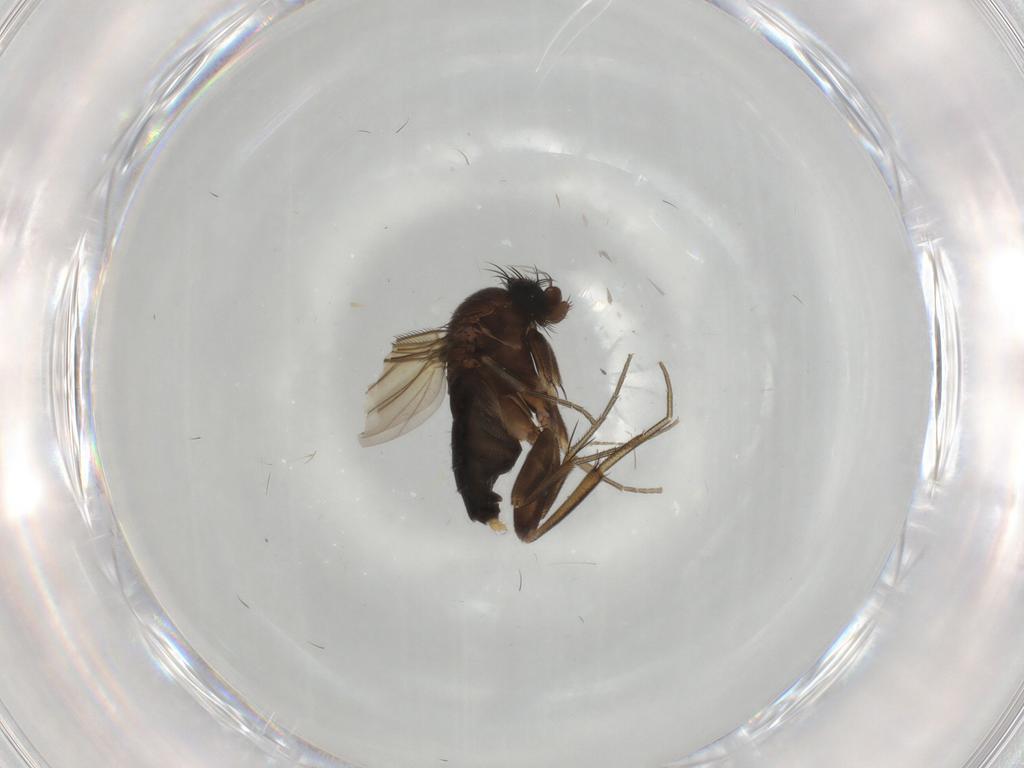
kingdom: Animalia
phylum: Arthropoda
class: Insecta
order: Diptera
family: Phoridae
